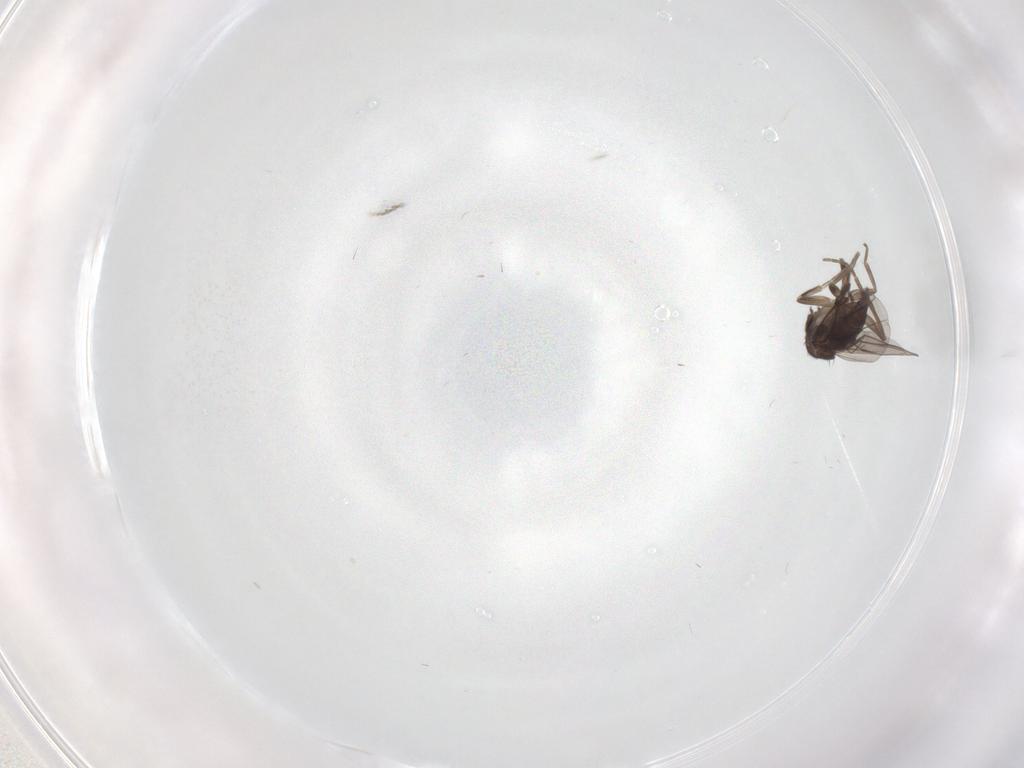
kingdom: Animalia
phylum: Arthropoda
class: Insecta
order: Diptera
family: Phoridae
